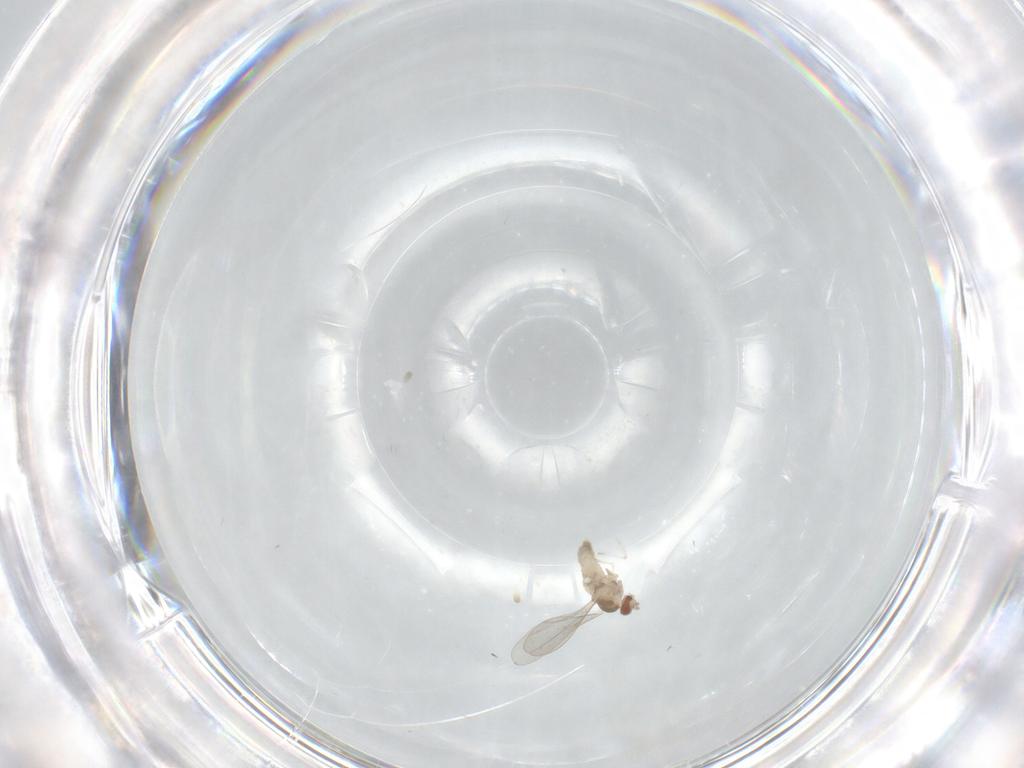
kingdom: Animalia
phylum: Arthropoda
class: Insecta
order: Diptera
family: Cecidomyiidae
